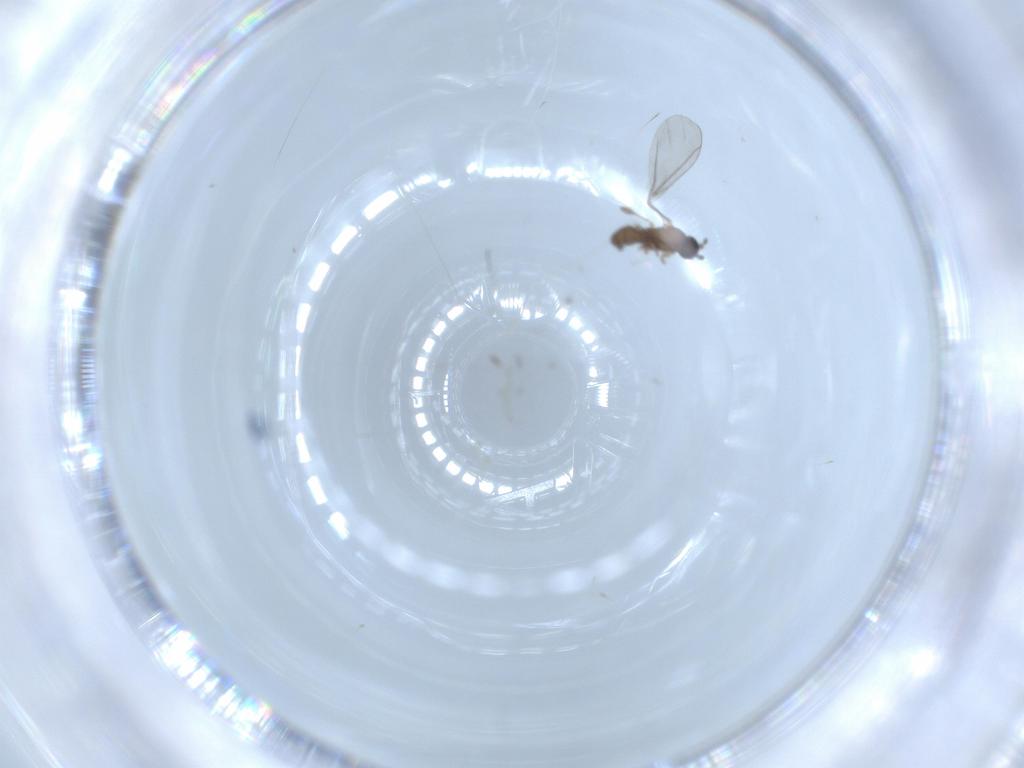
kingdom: Animalia
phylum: Arthropoda
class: Insecta
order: Diptera
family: Sciaridae
